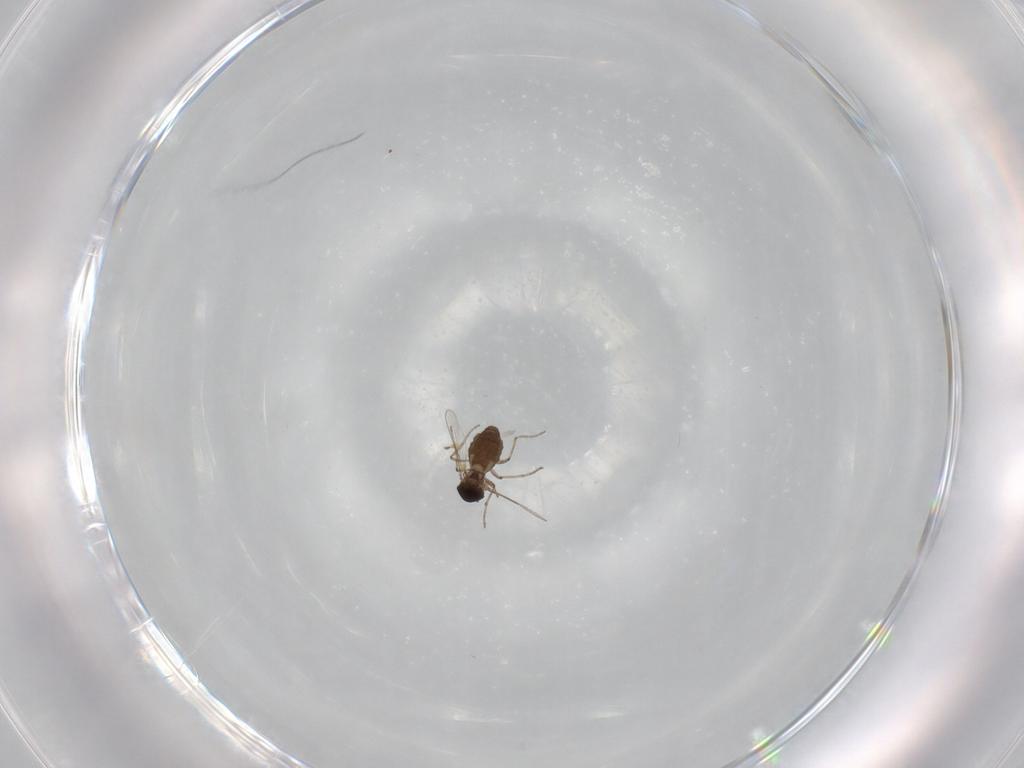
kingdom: Animalia
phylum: Arthropoda
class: Insecta
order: Diptera
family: Ceratopogonidae
